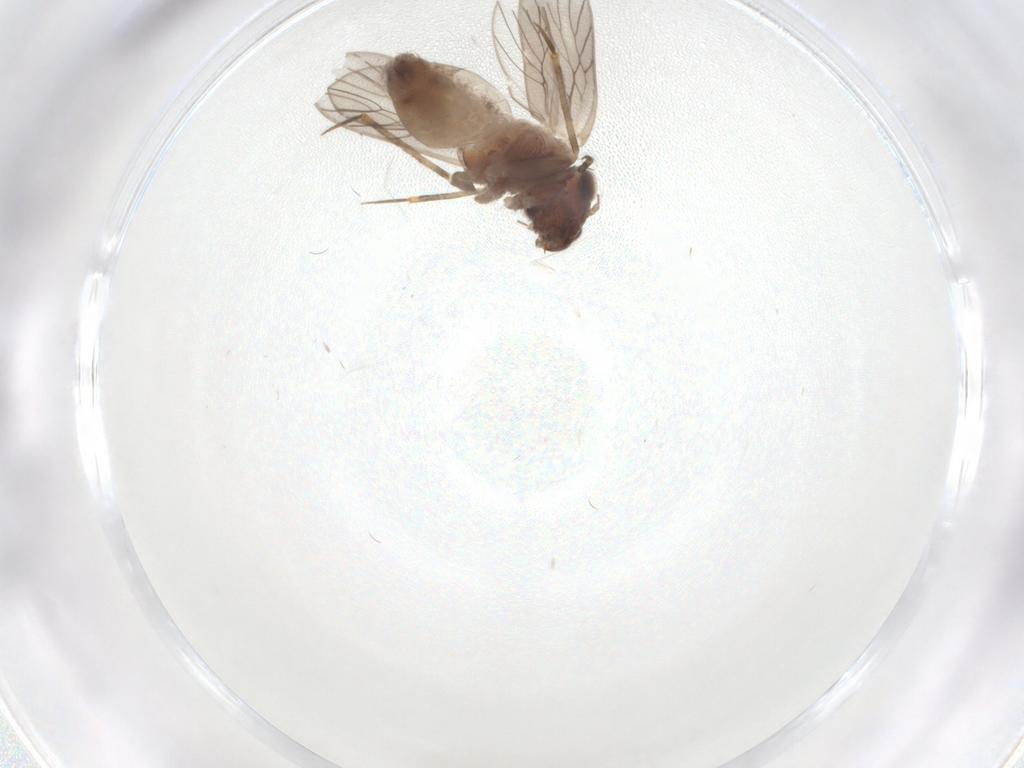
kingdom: Animalia
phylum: Arthropoda
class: Insecta
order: Psocodea
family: Lepidopsocidae
